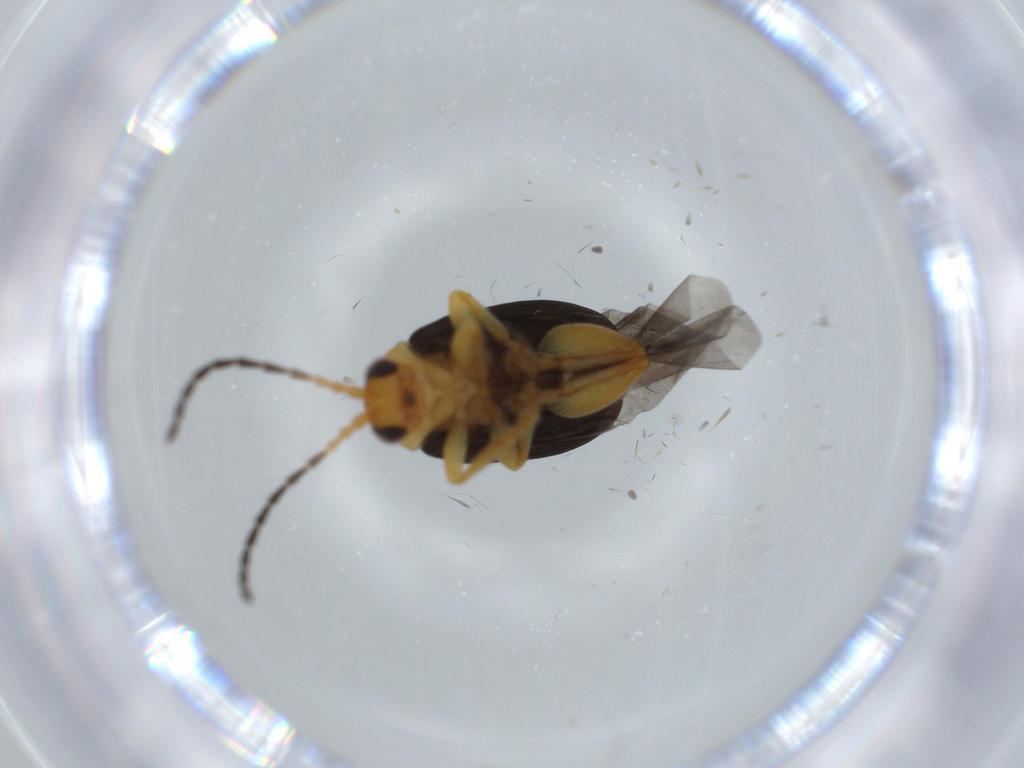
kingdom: Animalia
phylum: Arthropoda
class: Insecta
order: Coleoptera
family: Chrysomelidae
